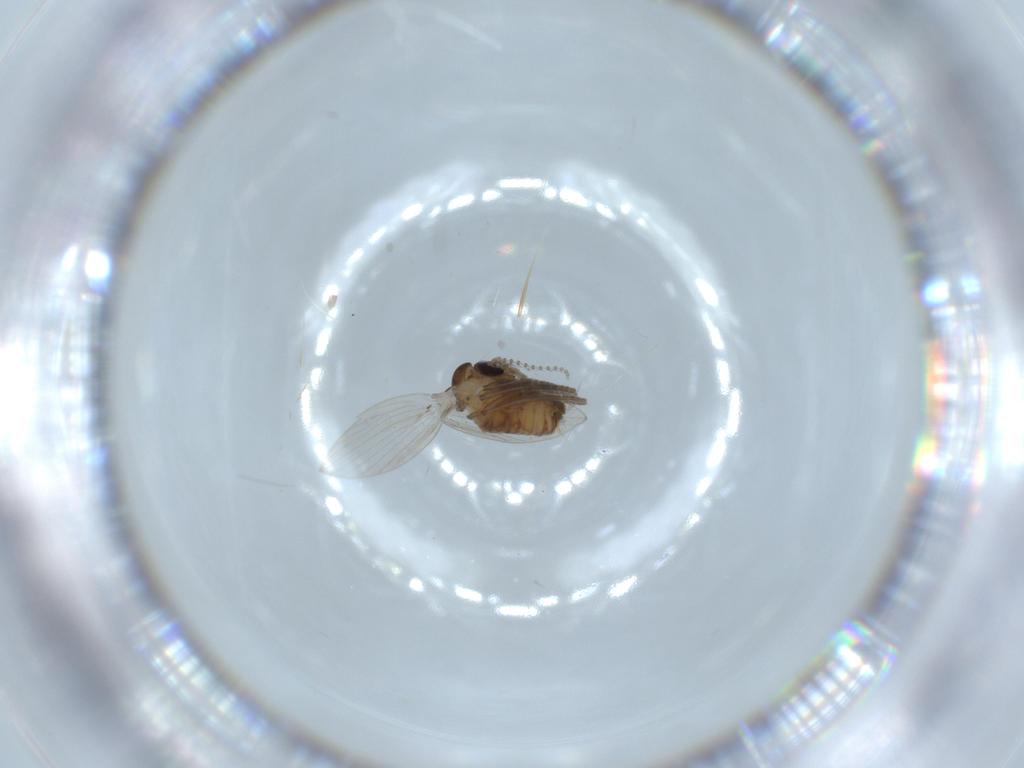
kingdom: Animalia
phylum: Arthropoda
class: Insecta
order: Diptera
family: Psychodidae
